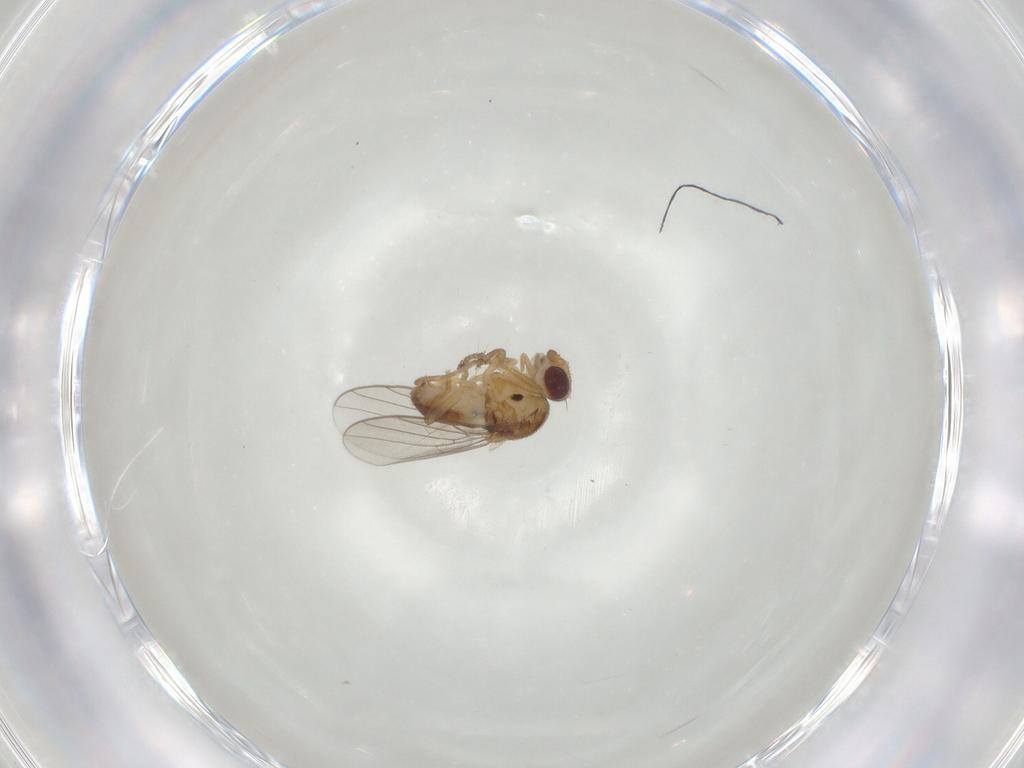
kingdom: Animalia
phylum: Arthropoda
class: Insecta
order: Diptera
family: Chloropidae
